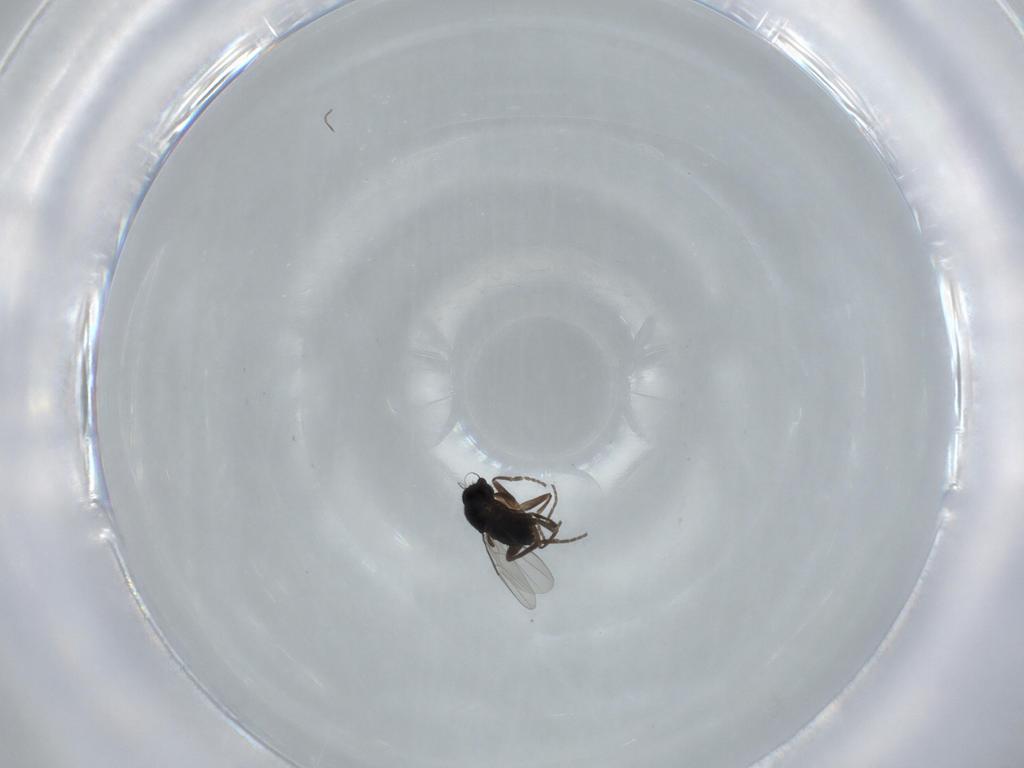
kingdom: Animalia
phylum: Arthropoda
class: Insecta
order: Diptera
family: Phoridae
